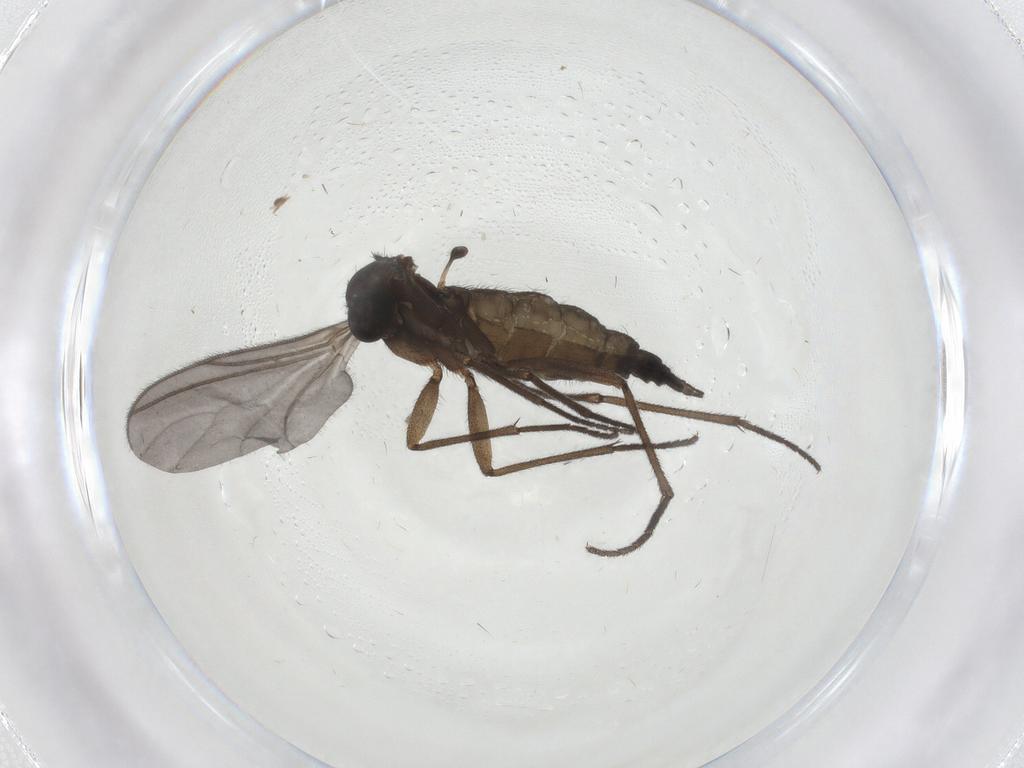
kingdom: Animalia
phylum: Arthropoda
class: Insecta
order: Diptera
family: Sciaridae
